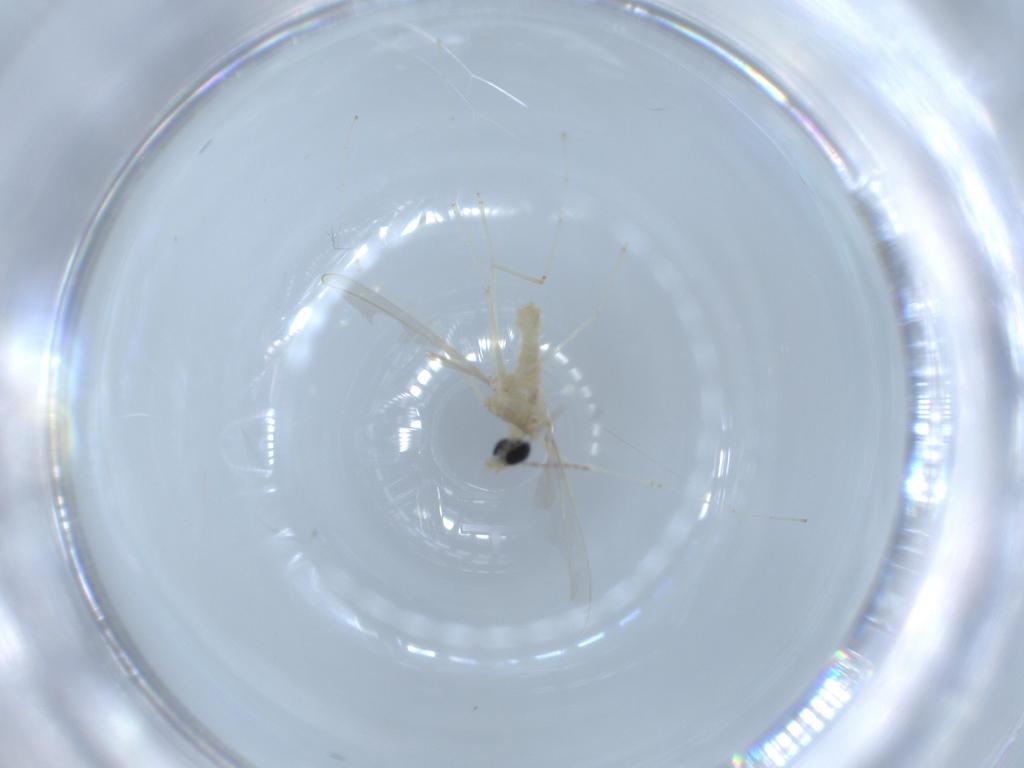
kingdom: Animalia
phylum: Arthropoda
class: Insecta
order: Diptera
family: Cecidomyiidae
